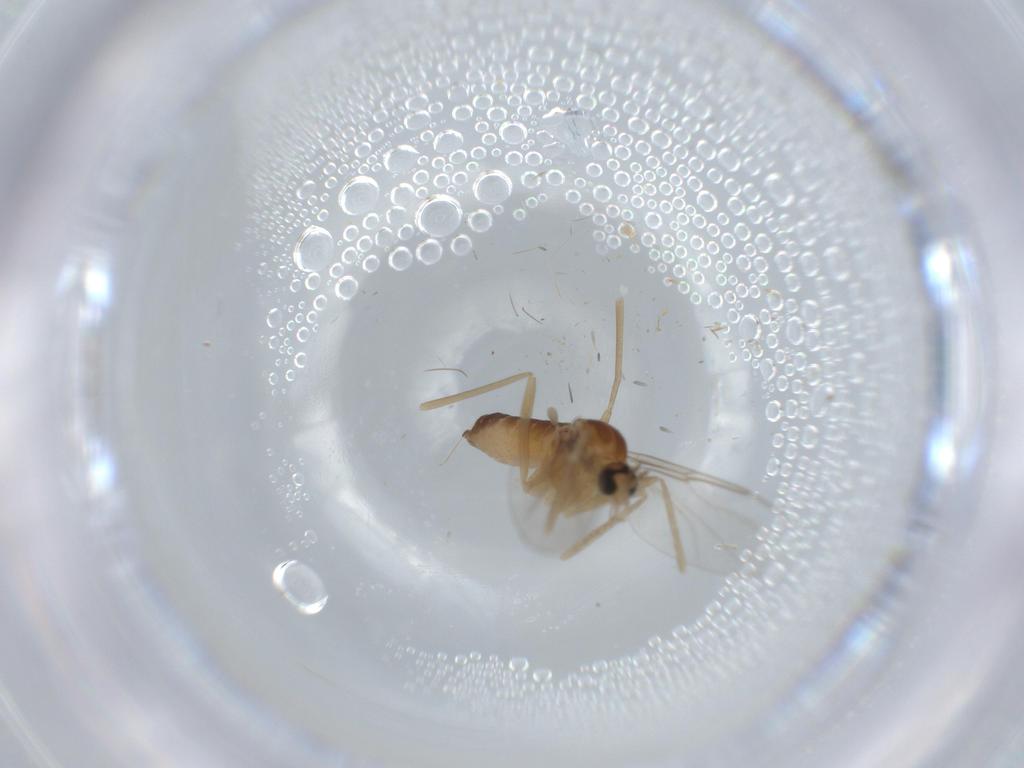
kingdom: Animalia
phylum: Arthropoda
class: Insecta
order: Diptera
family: Cecidomyiidae
